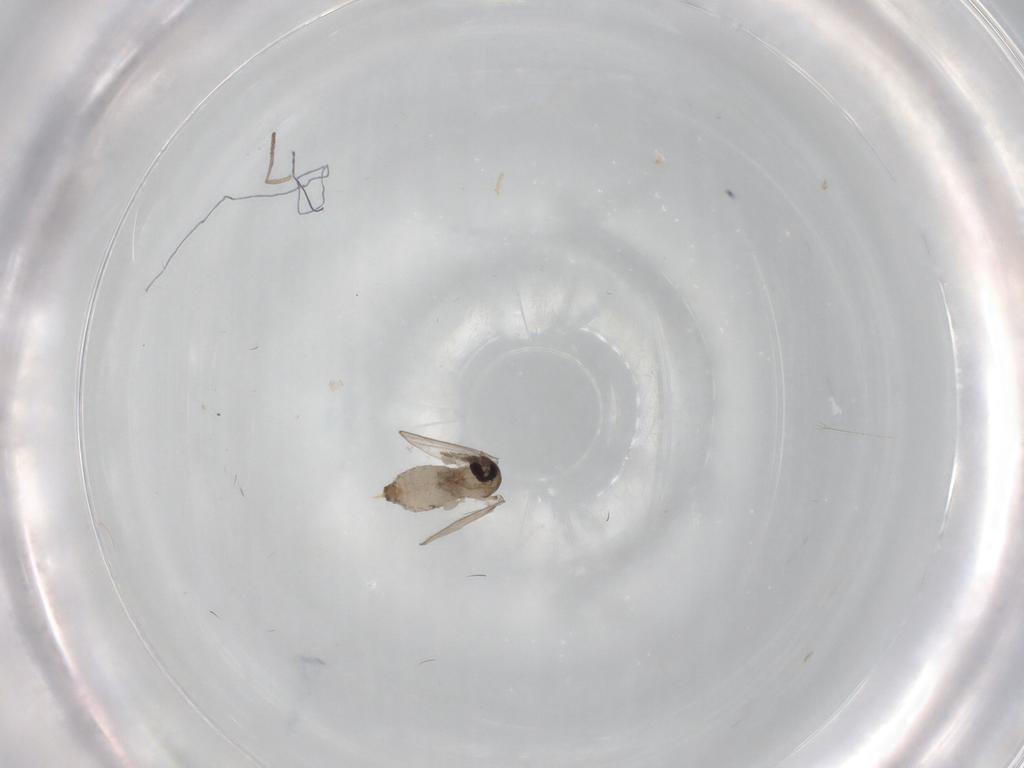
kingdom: Animalia
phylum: Arthropoda
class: Insecta
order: Diptera
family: Psychodidae
